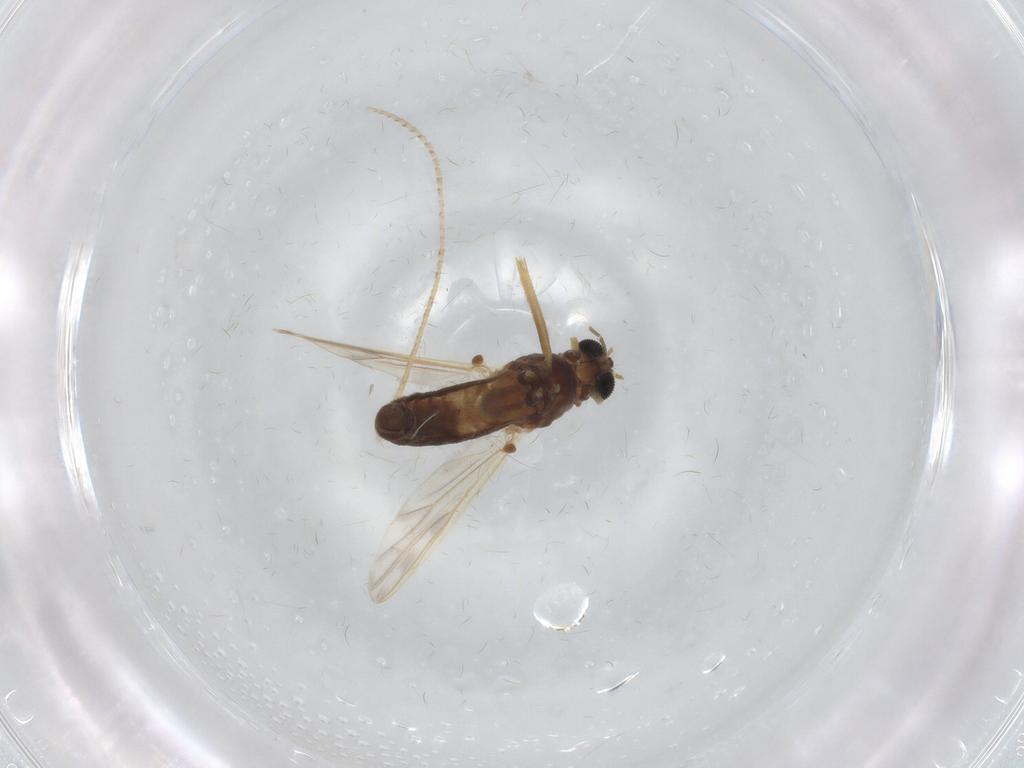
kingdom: Animalia
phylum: Arthropoda
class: Insecta
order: Diptera
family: Chironomidae
